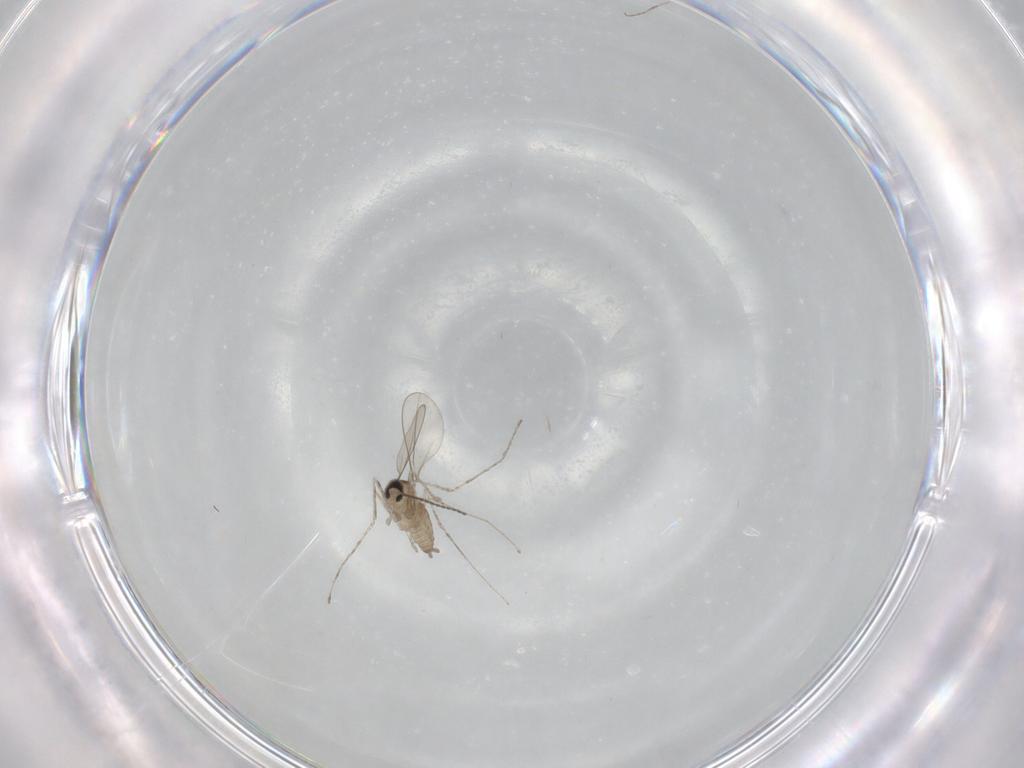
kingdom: Animalia
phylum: Arthropoda
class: Insecta
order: Diptera
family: Cecidomyiidae
